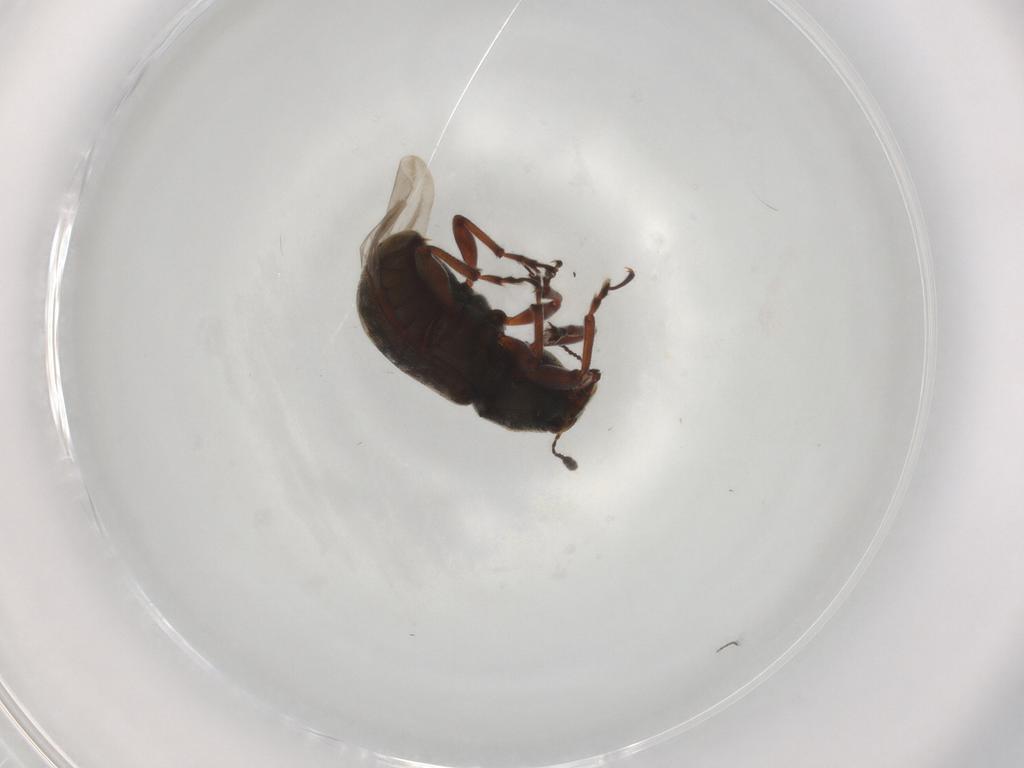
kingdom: Animalia
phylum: Arthropoda
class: Insecta
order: Coleoptera
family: Anthribidae
